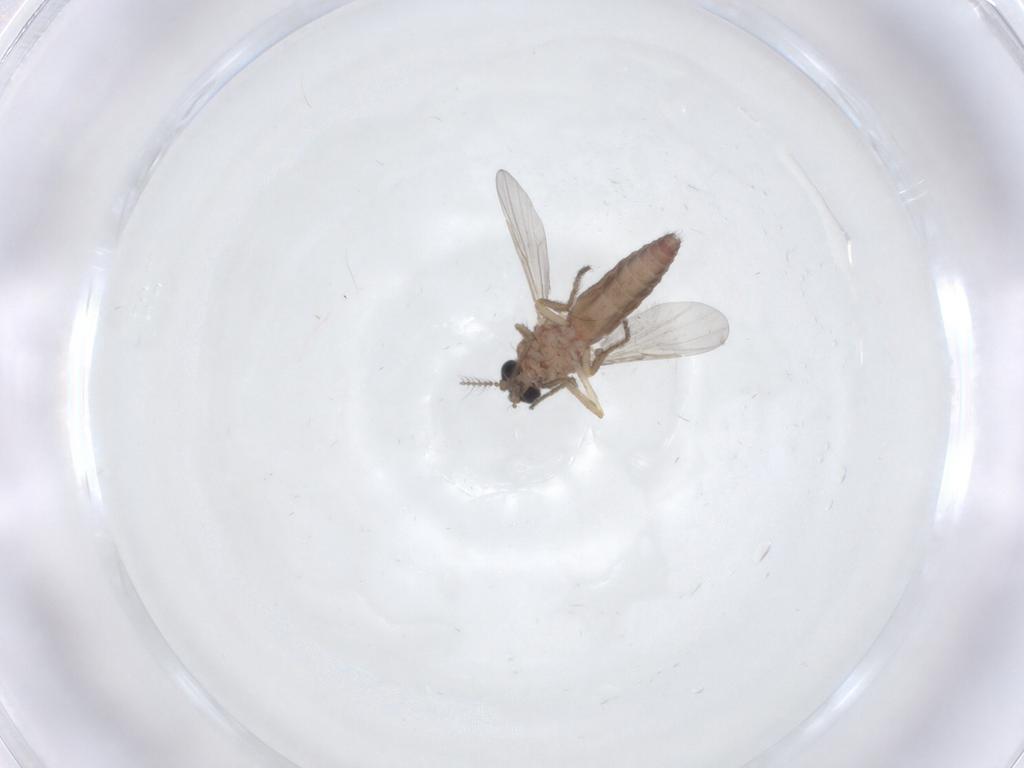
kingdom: Animalia
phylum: Arthropoda
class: Insecta
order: Diptera
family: Ceratopogonidae
